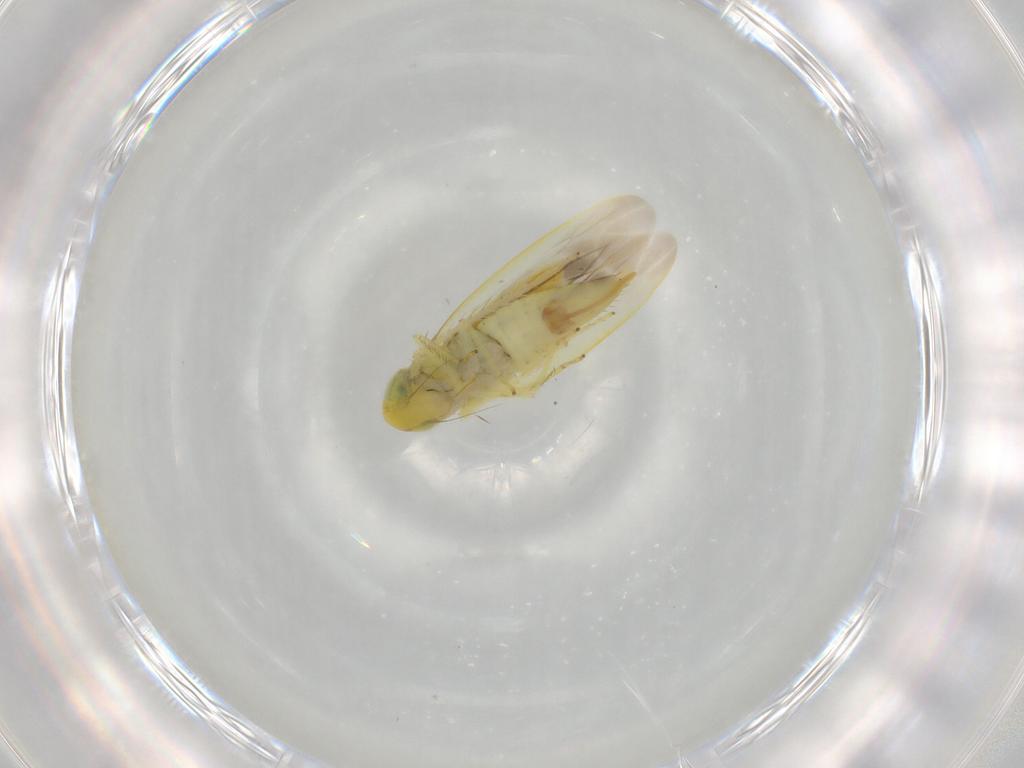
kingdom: Animalia
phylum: Arthropoda
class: Insecta
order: Hemiptera
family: Cicadellidae
